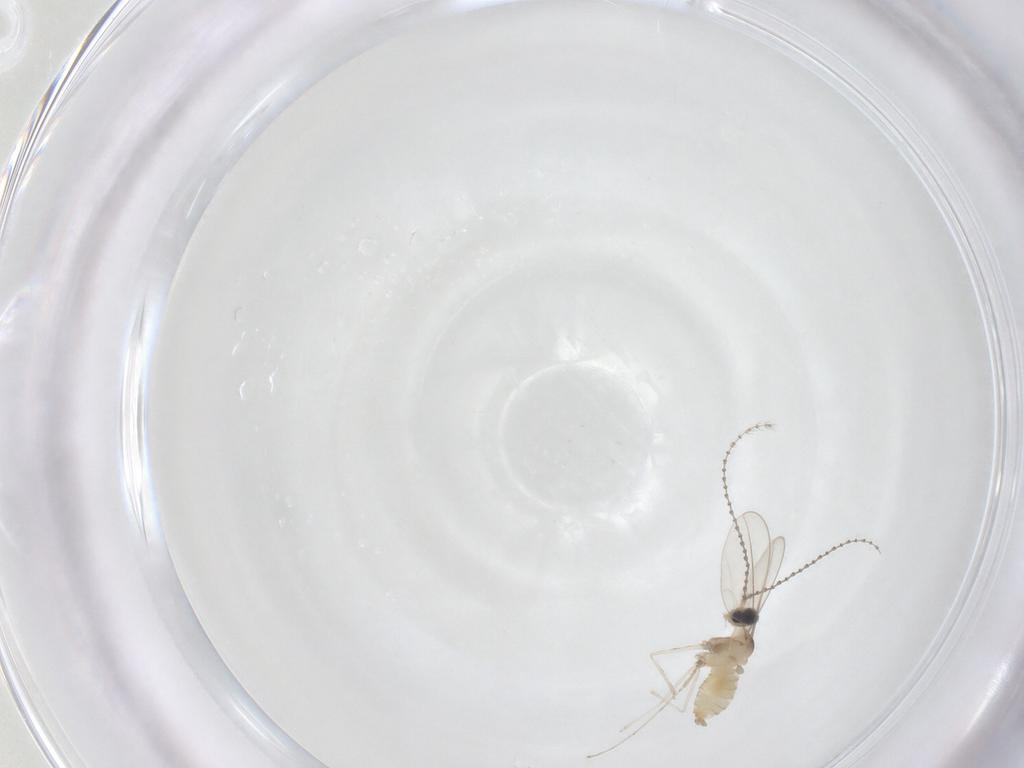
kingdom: Animalia
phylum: Arthropoda
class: Insecta
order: Diptera
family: Cecidomyiidae
